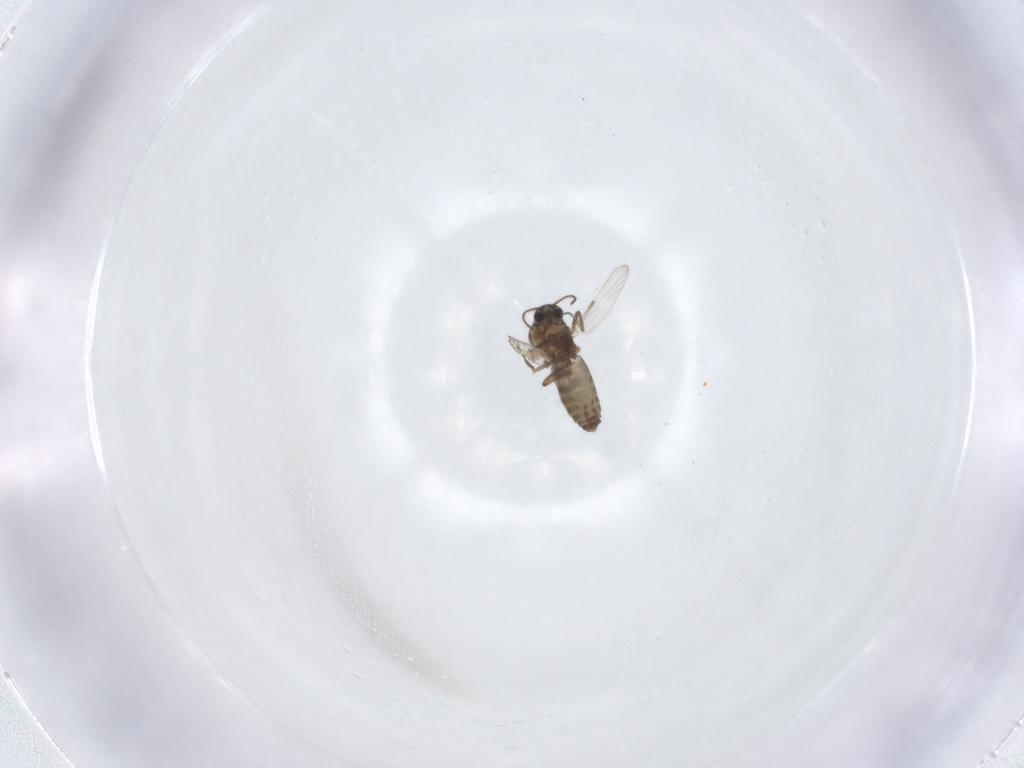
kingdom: Animalia
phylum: Arthropoda
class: Insecta
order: Diptera
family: Ceratopogonidae
